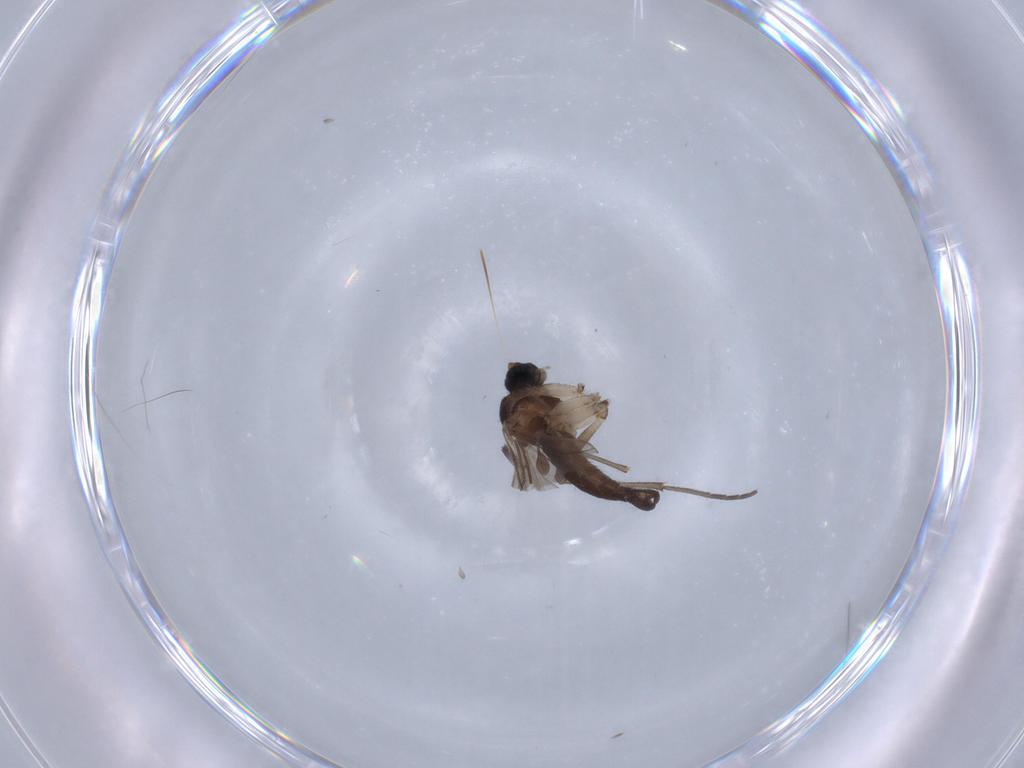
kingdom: Animalia
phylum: Arthropoda
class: Insecta
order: Diptera
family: Sciaridae
